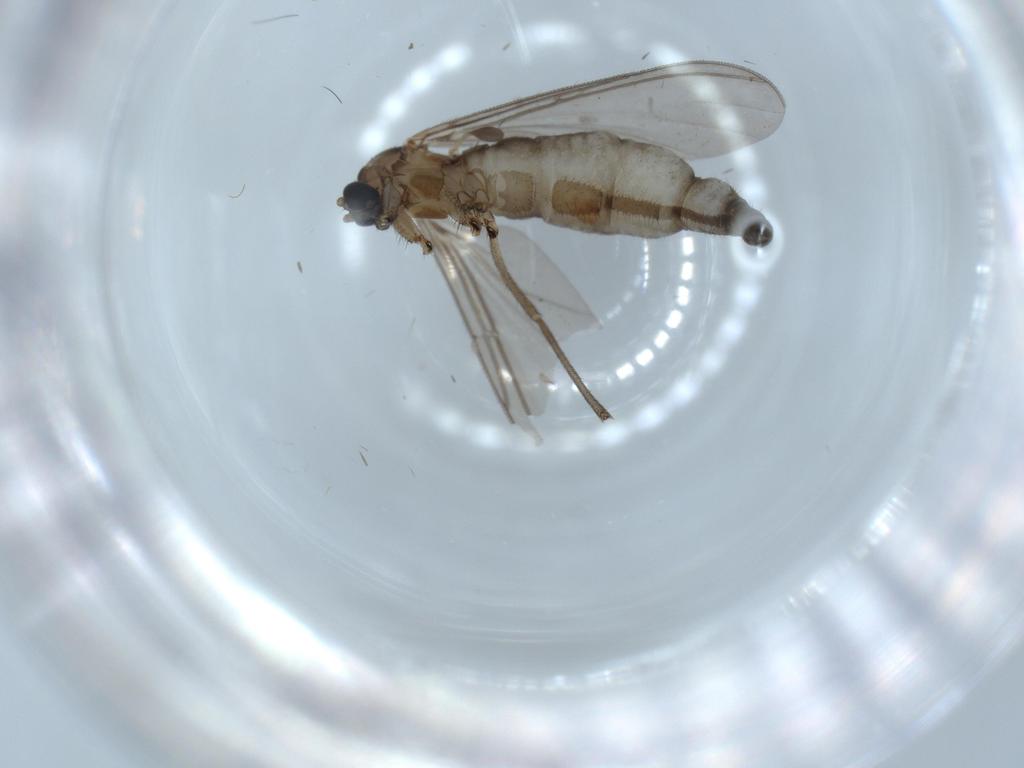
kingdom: Animalia
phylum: Arthropoda
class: Insecta
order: Diptera
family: Sciaridae
